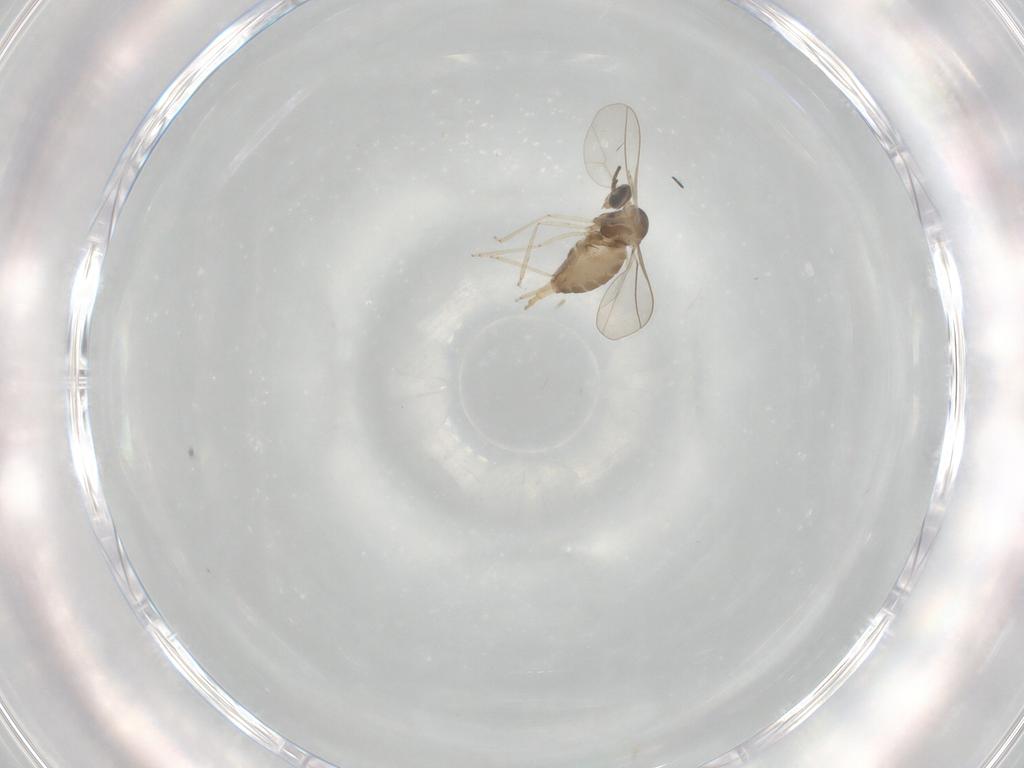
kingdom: Animalia
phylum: Arthropoda
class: Insecta
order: Diptera
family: Cecidomyiidae
